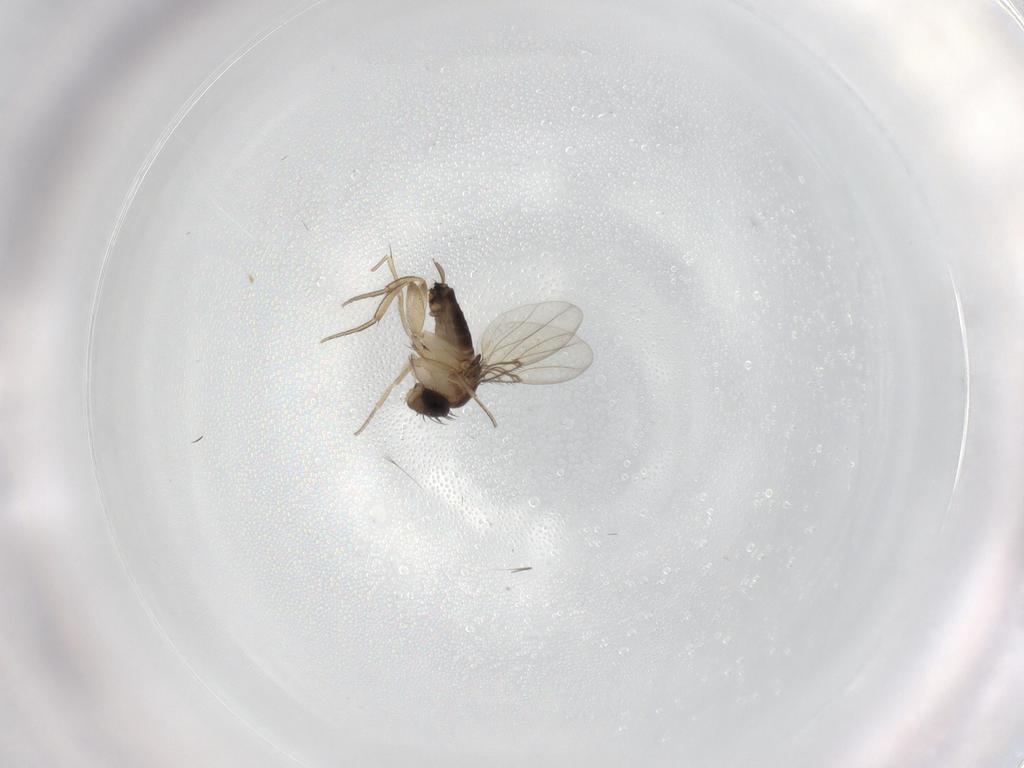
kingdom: Animalia
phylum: Arthropoda
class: Insecta
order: Diptera
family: Cecidomyiidae
